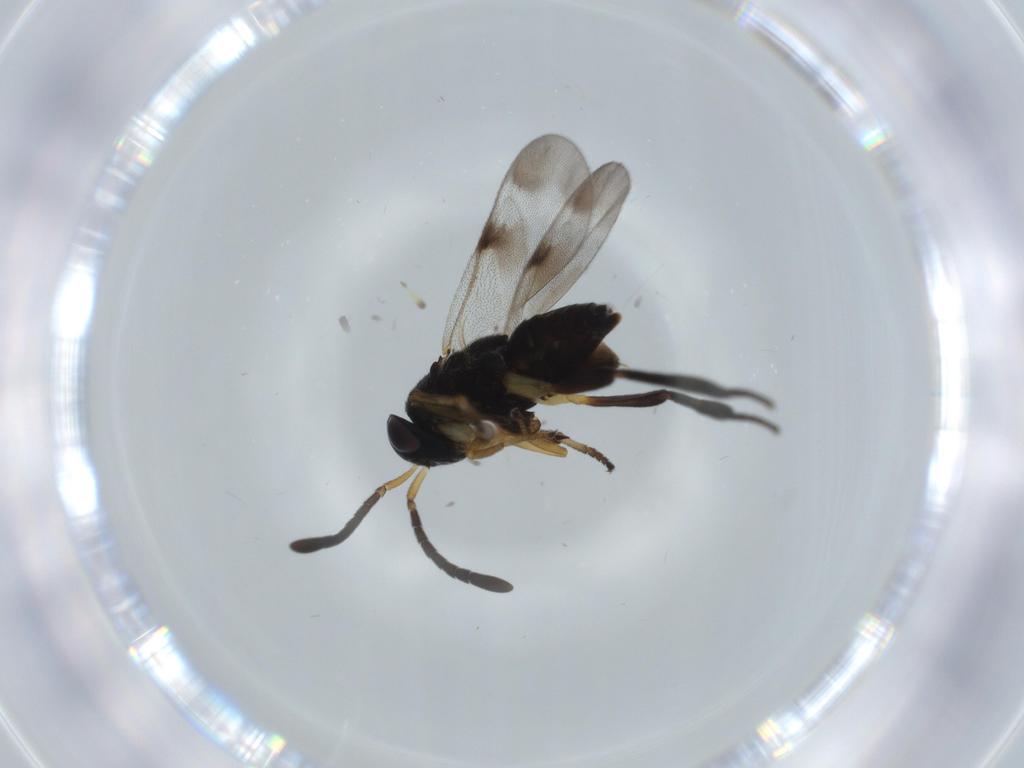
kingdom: Animalia
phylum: Arthropoda
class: Insecta
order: Hymenoptera
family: Pteromalidae
